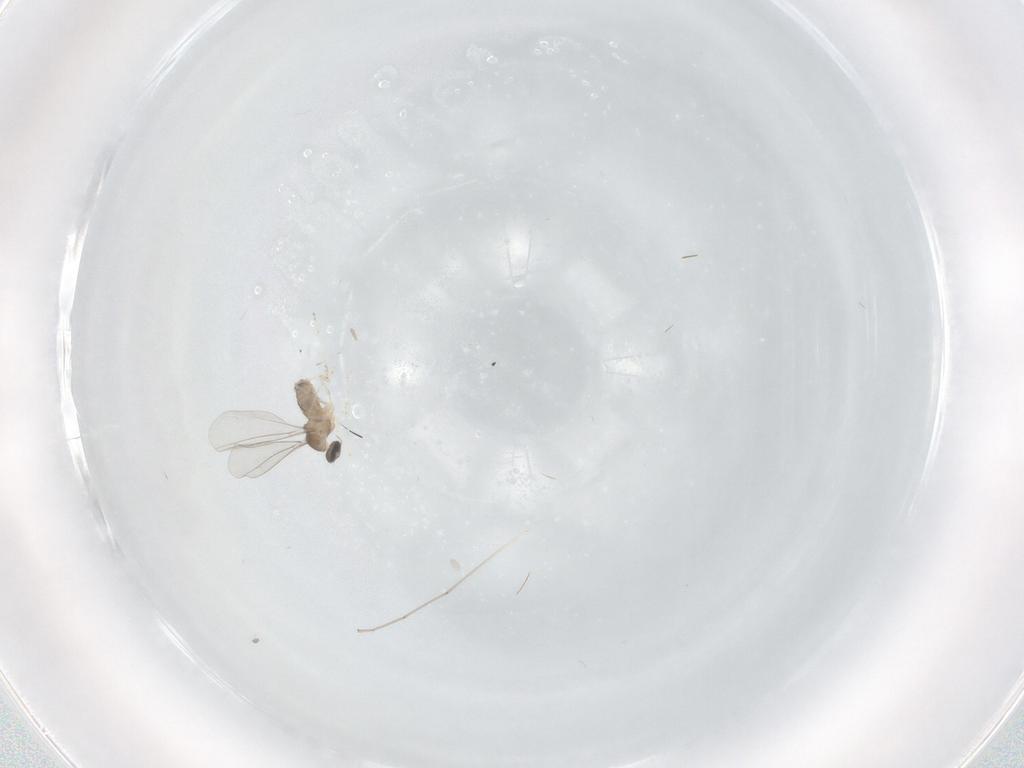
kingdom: Animalia
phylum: Arthropoda
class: Insecta
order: Diptera
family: Cecidomyiidae
